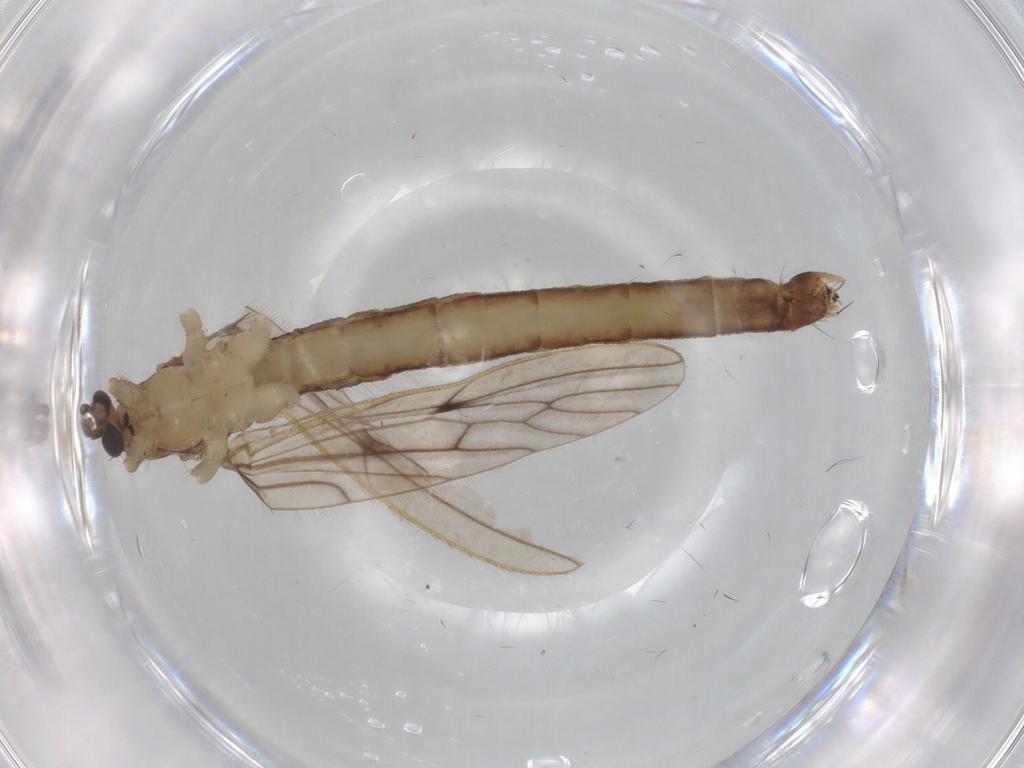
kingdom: Animalia
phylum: Arthropoda
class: Insecta
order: Diptera
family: Limoniidae
